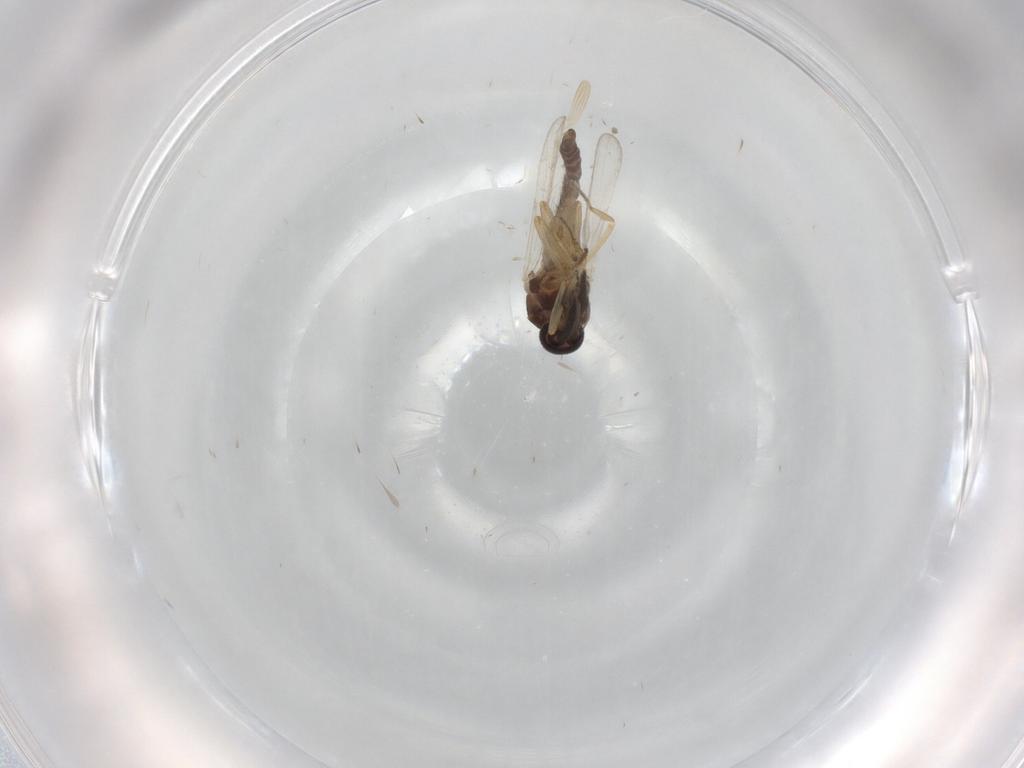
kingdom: Animalia
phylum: Arthropoda
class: Insecta
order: Diptera
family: Ceratopogonidae
